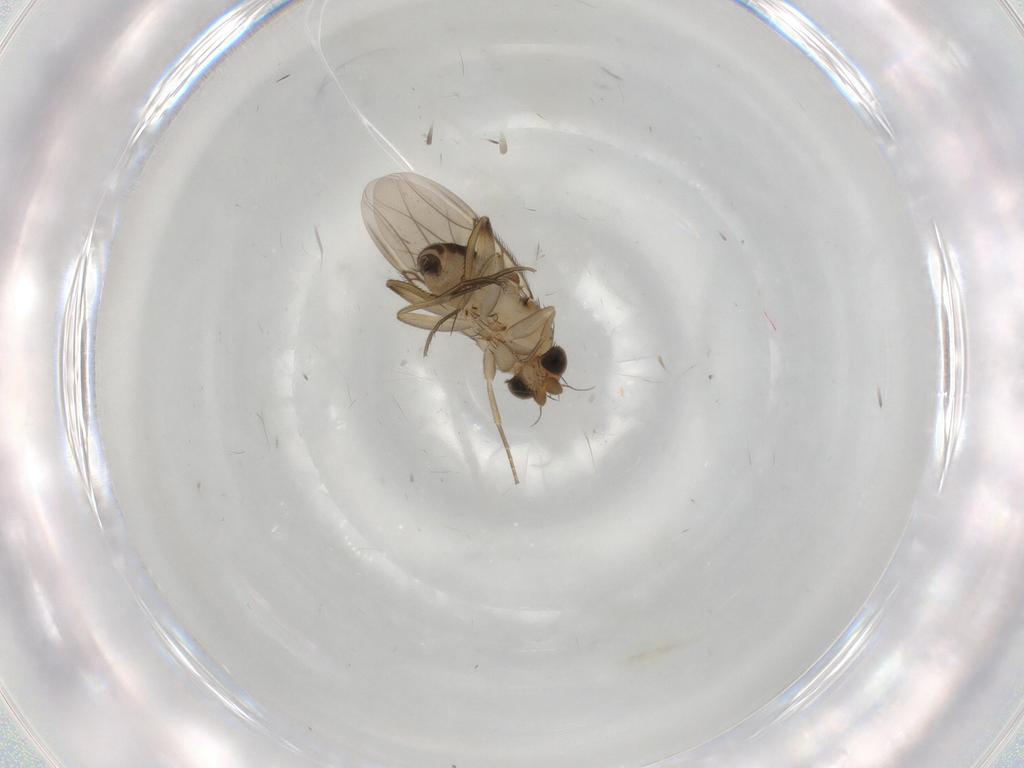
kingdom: Animalia
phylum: Arthropoda
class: Insecta
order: Diptera
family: Phoridae
